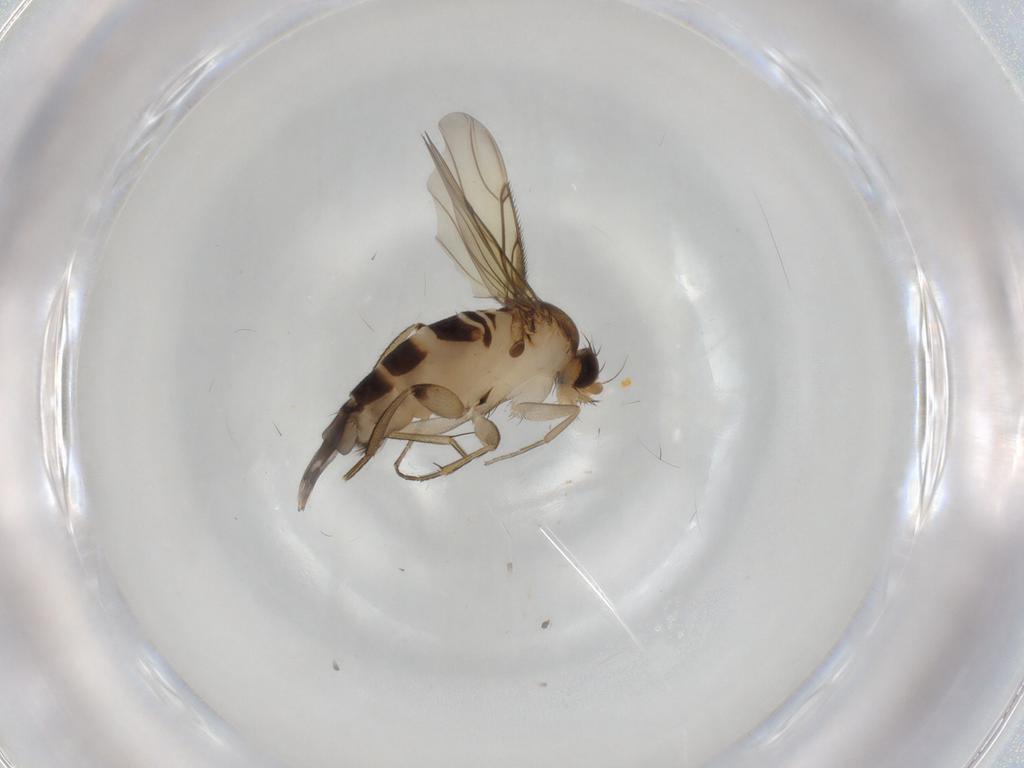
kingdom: Animalia
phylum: Arthropoda
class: Insecta
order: Diptera
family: Phoridae
